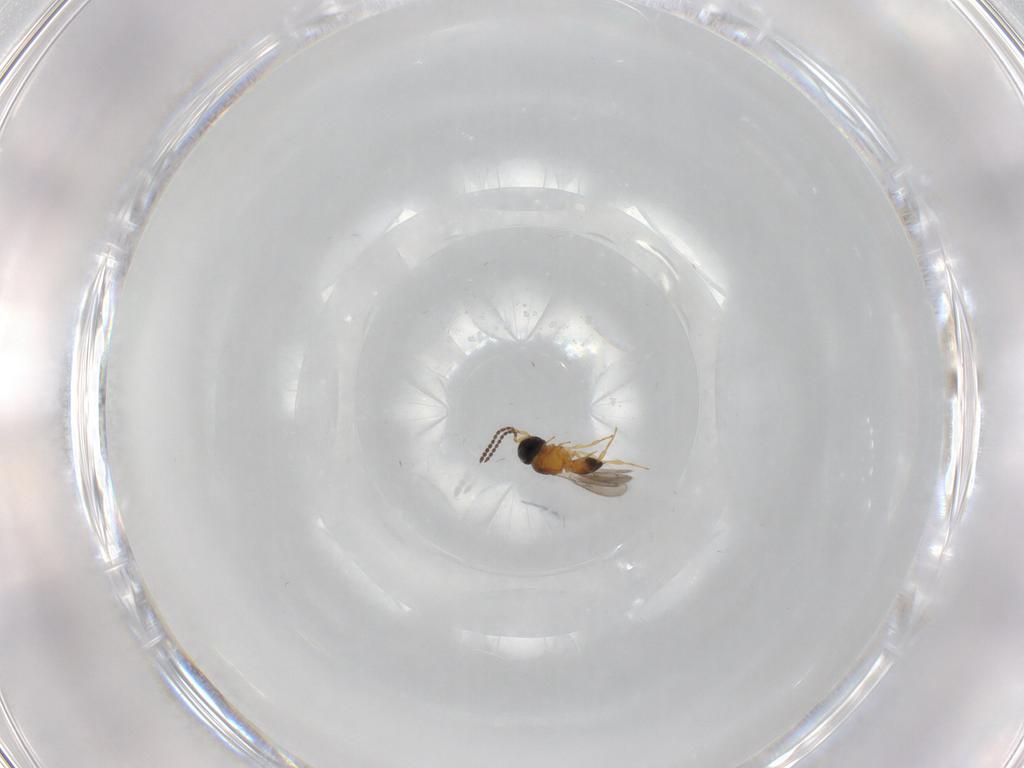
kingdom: Animalia
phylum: Arthropoda
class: Insecta
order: Hymenoptera
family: Scelionidae
